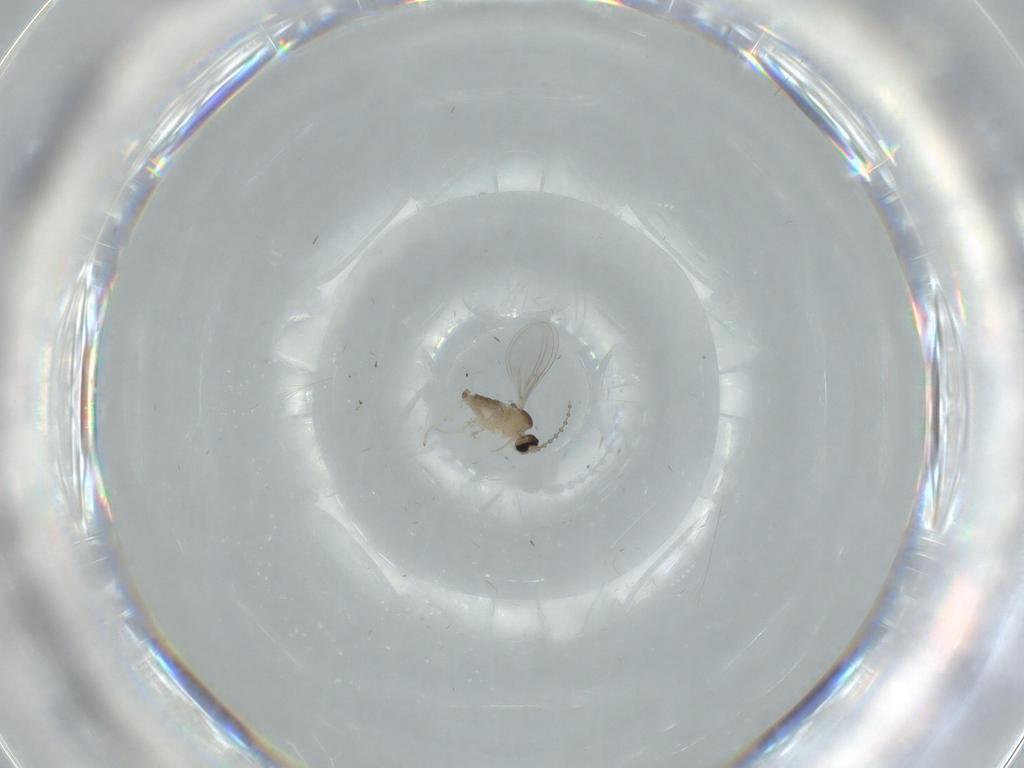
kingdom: Animalia
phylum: Arthropoda
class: Insecta
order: Diptera
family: Cecidomyiidae
